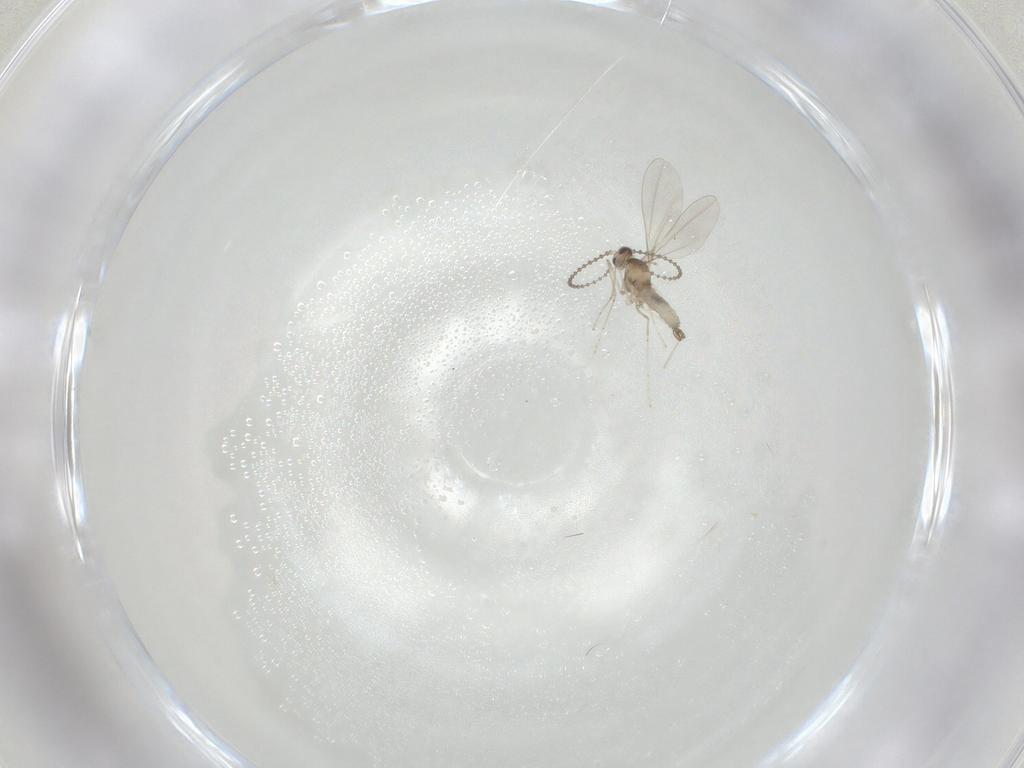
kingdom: Animalia
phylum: Arthropoda
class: Insecta
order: Diptera
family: Cecidomyiidae
